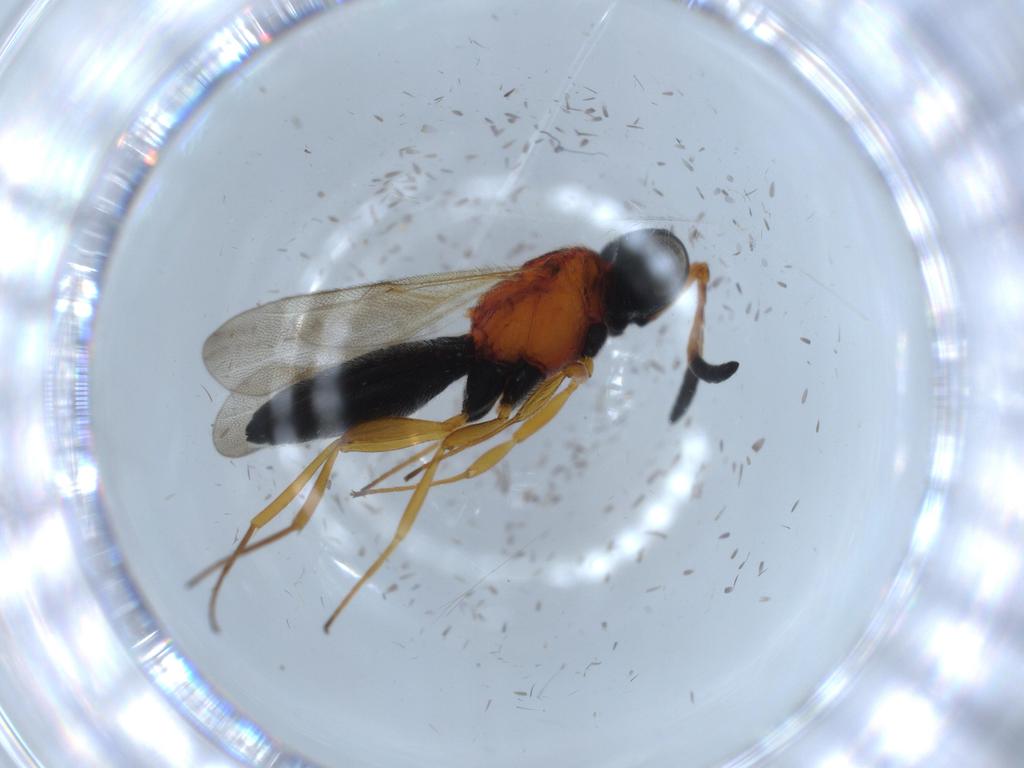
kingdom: Animalia
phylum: Arthropoda
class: Insecta
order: Hymenoptera
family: Scelionidae
